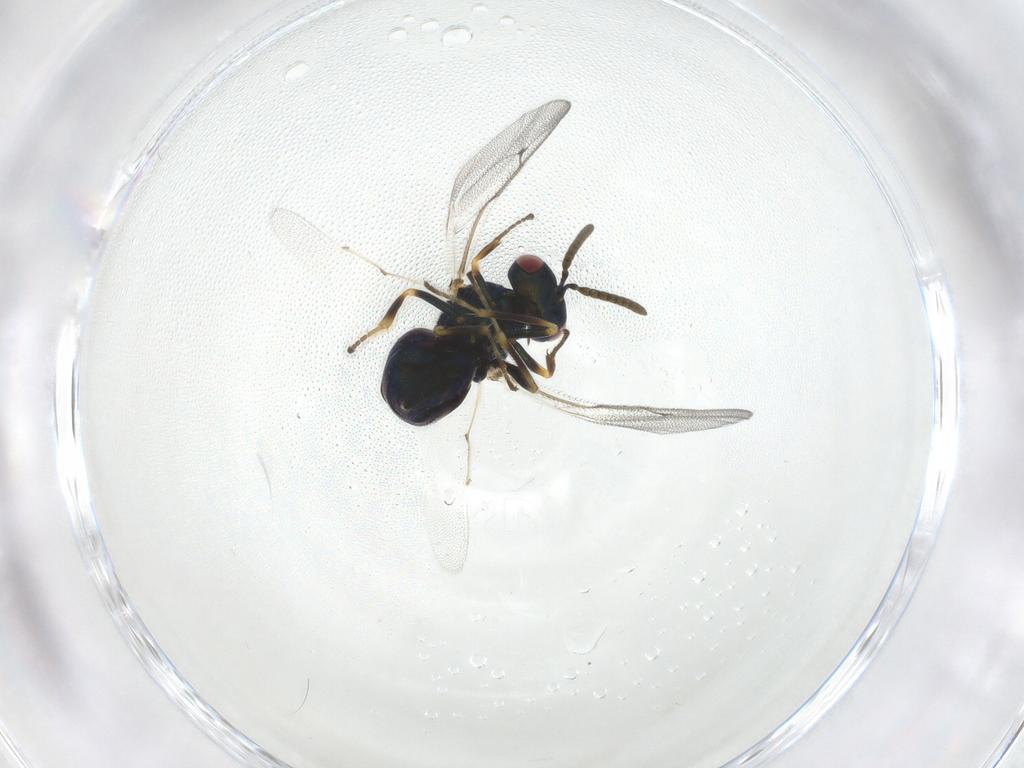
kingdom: Animalia
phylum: Arthropoda
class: Insecta
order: Hymenoptera
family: Pteromalidae
